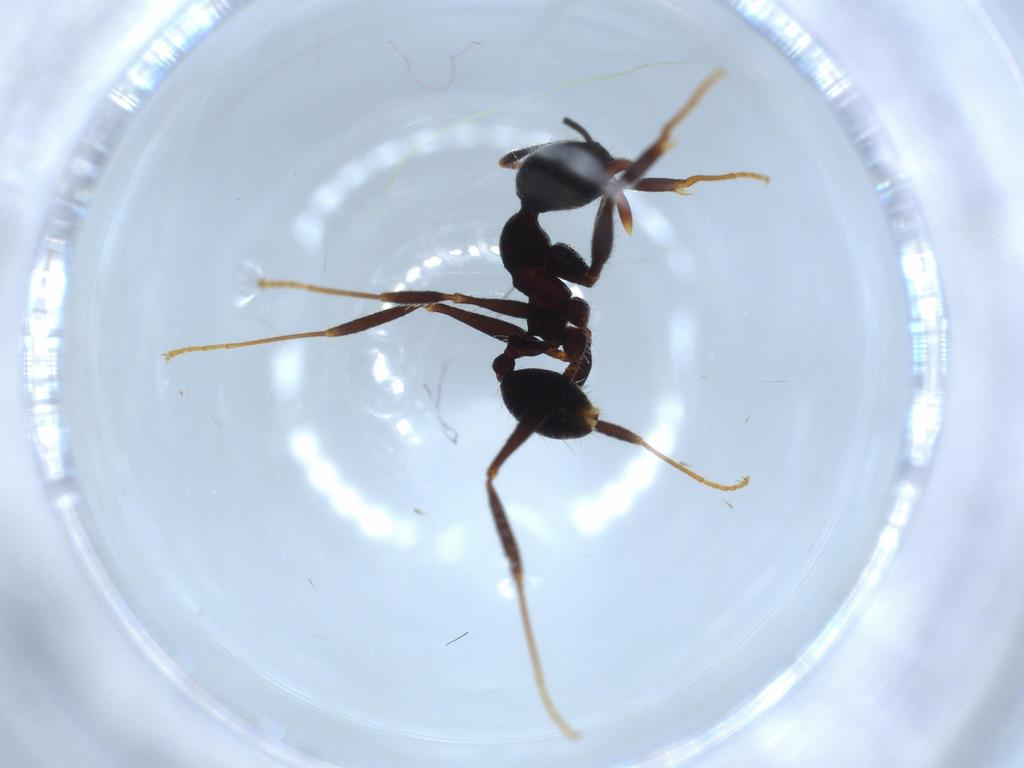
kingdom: Animalia
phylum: Arthropoda
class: Insecta
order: Hymenoptera
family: Formicidae
